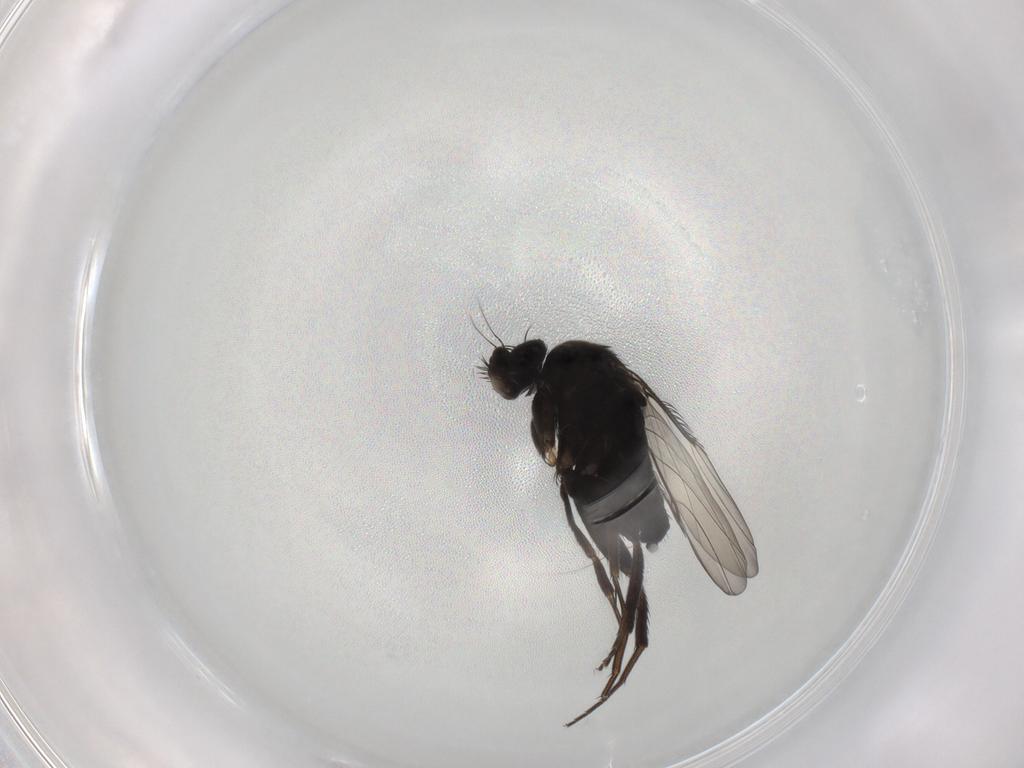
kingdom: Animalia
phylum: Arthropoda
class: Insecta
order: Diptera
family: Phoridae
